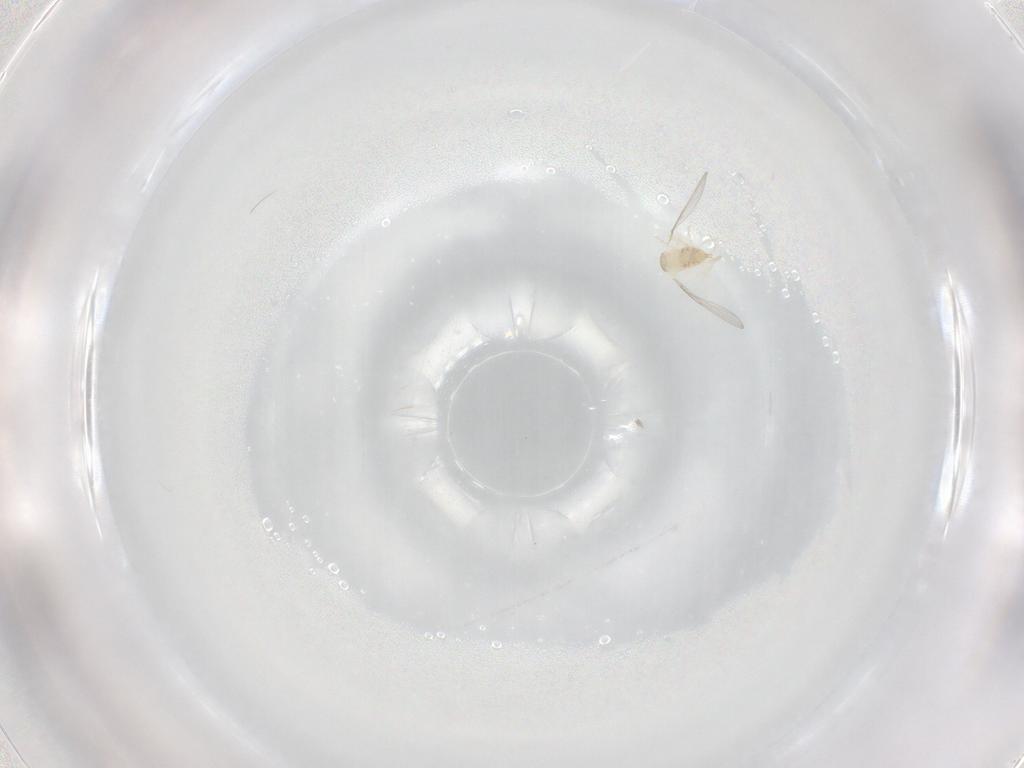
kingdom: Animalia
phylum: Arthropoda
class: Insecta
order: Diptera
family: Cecidomyiidae
